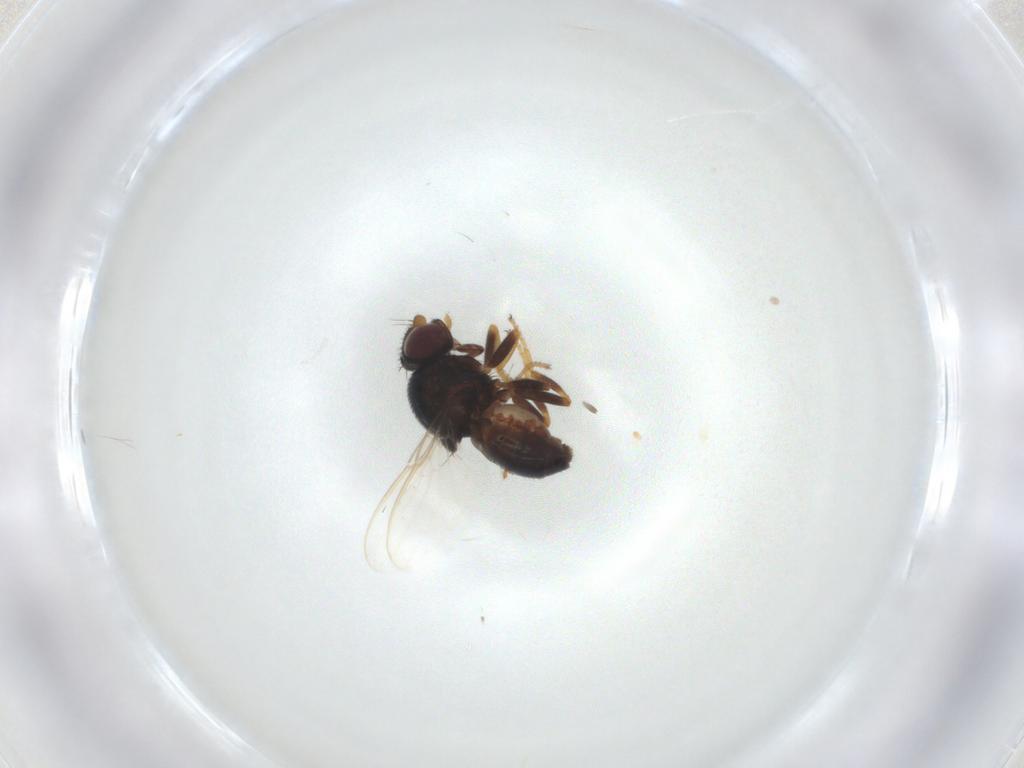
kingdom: Animalia
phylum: Arthropoda
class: Insecta
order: Diptera
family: Chloropidae
